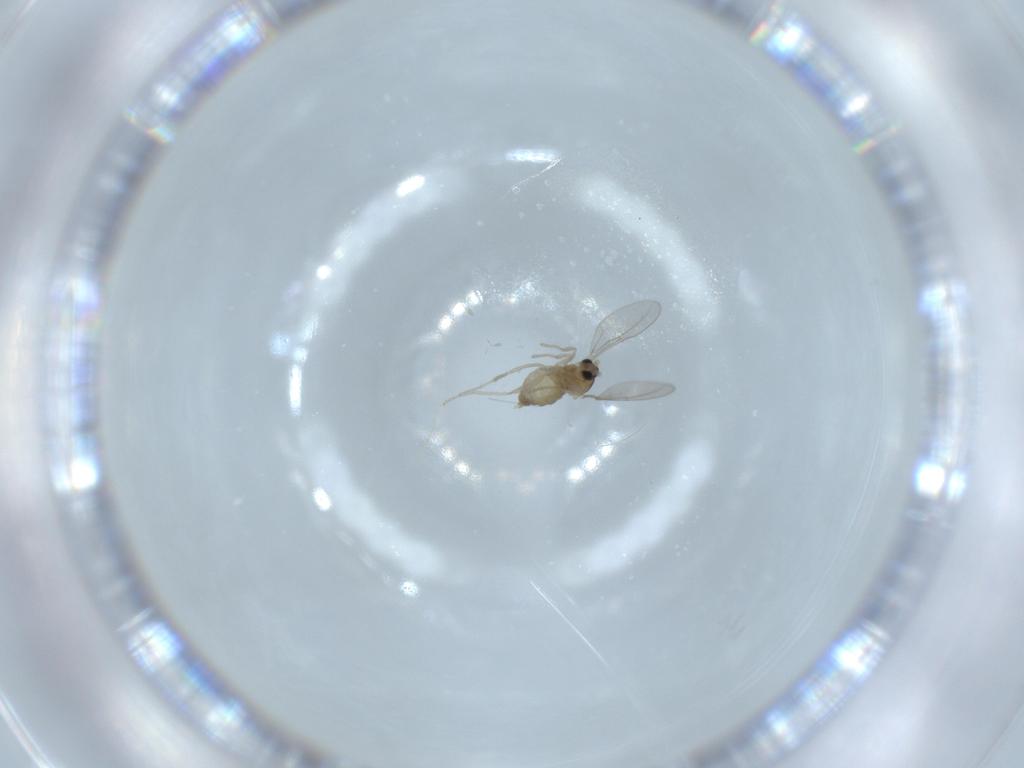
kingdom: Animalia
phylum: Arthropoda
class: Insecta
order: Diptera
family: Cecidomyiidae
